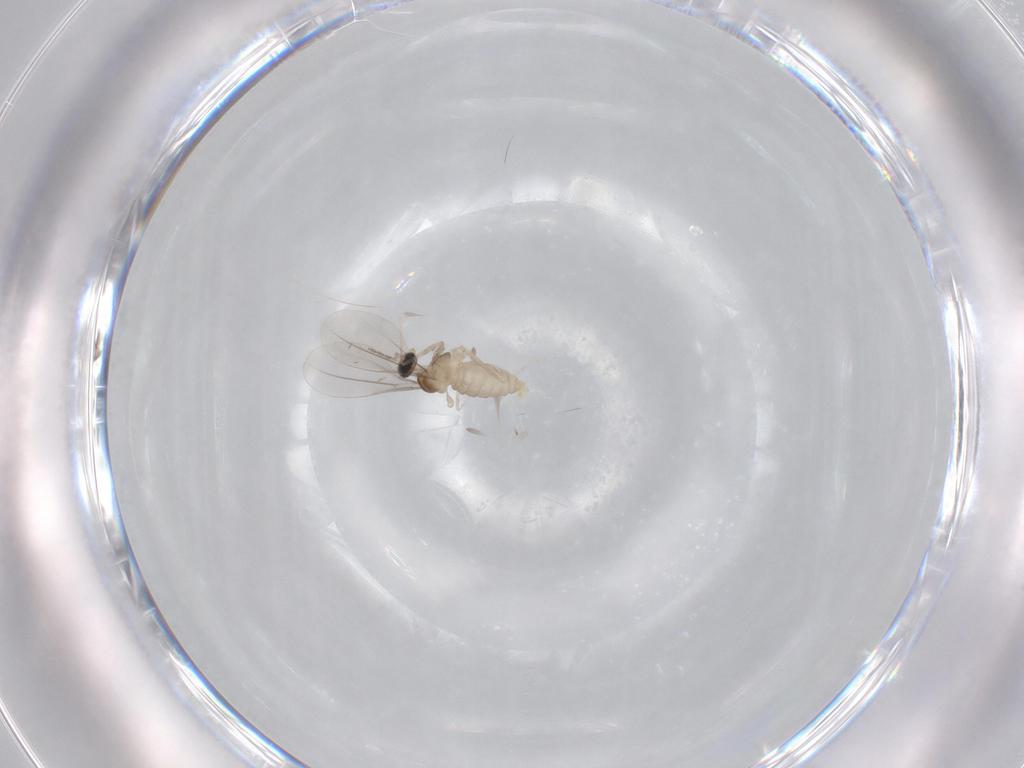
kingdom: Animalia
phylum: Arthropoda
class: Insecta
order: Diptera
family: Cecidomyiidae
